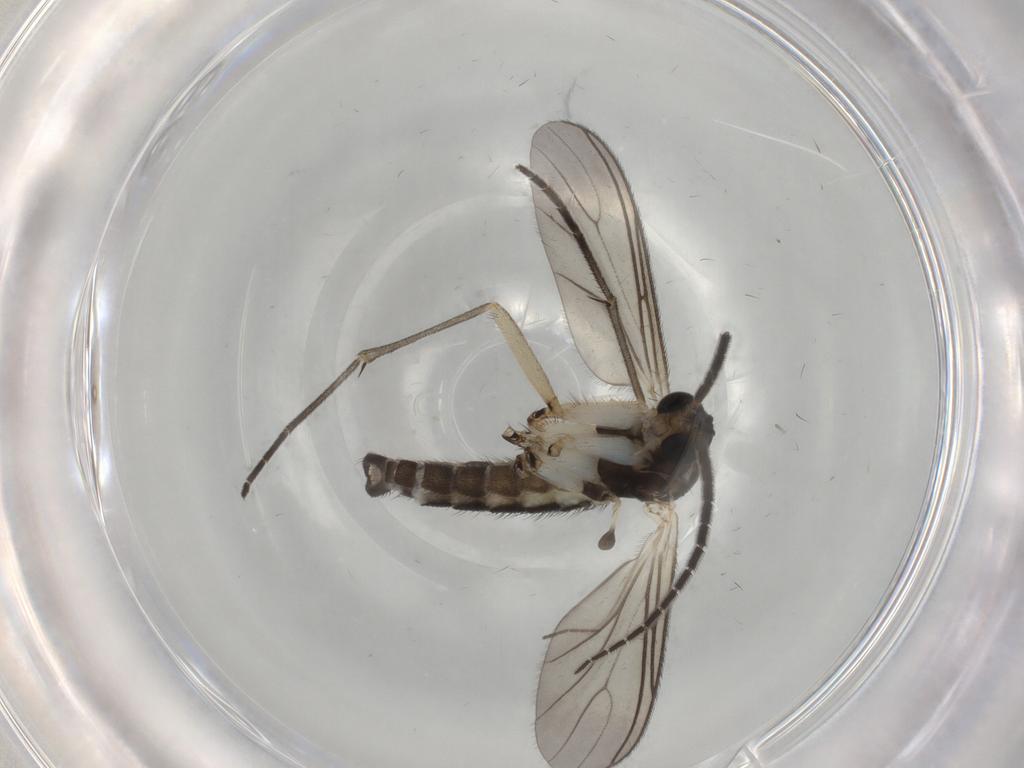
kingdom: Animalia
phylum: Arthropoda
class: Insecta
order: Diptera
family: Sciaridae
